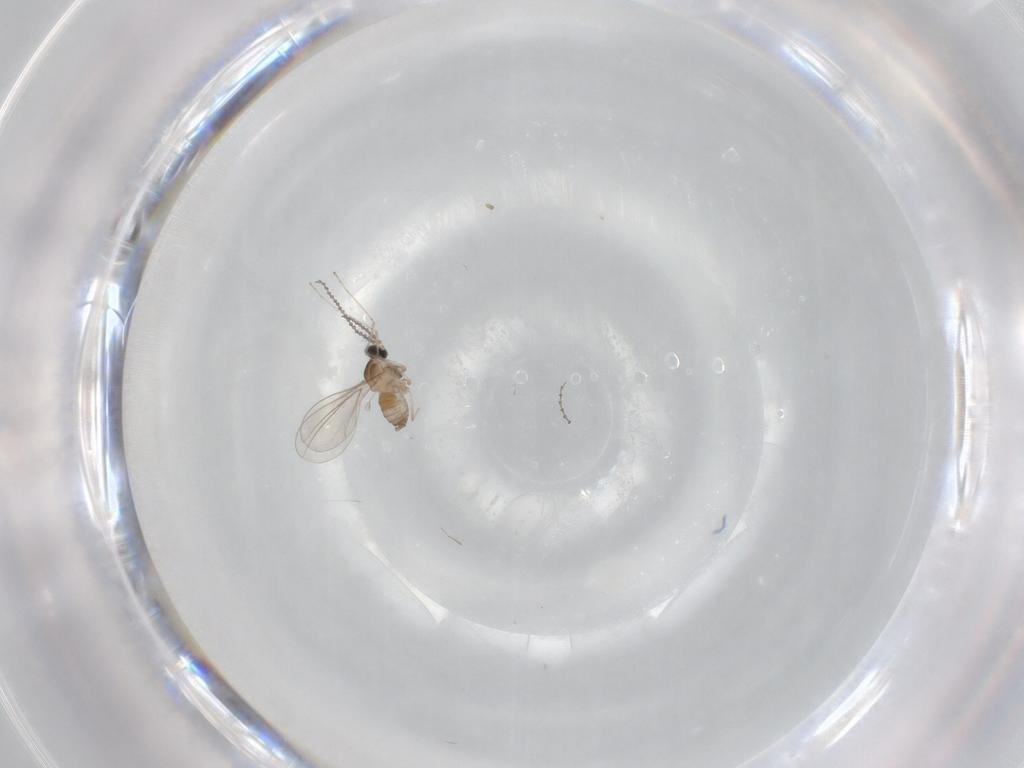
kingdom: Animalia
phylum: Arthropoda
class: Insecta
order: Diptera
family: Cecidomyiidae
